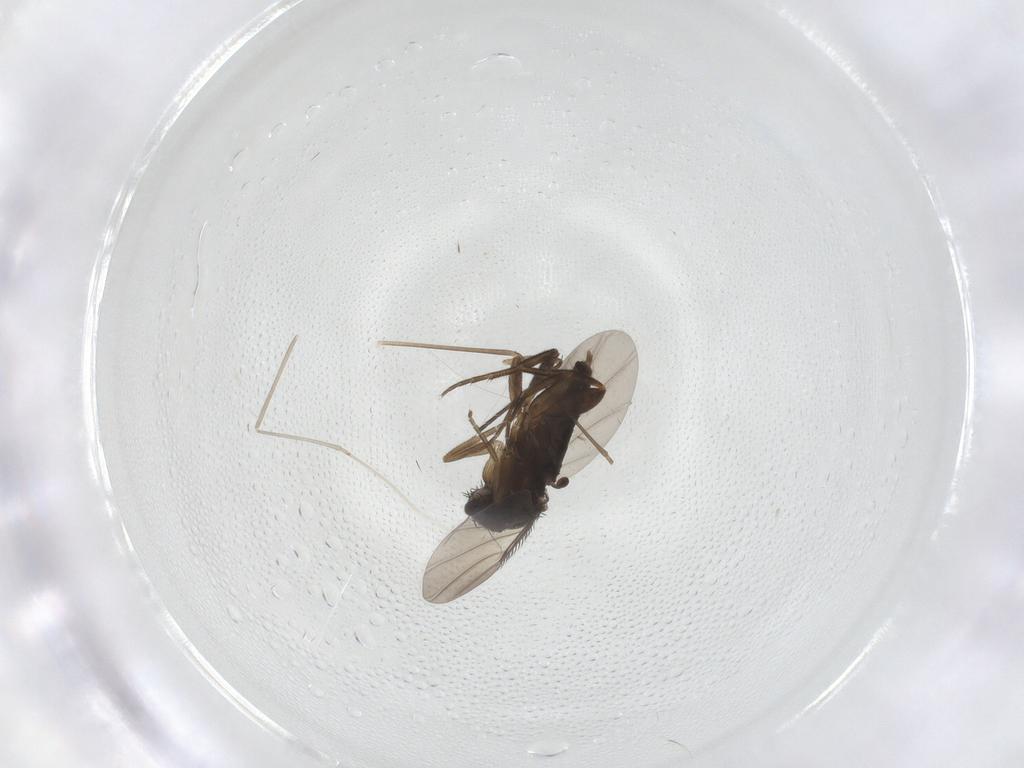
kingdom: Animalia
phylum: Arthropoda
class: Insecta
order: Diptera
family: Phoridae
